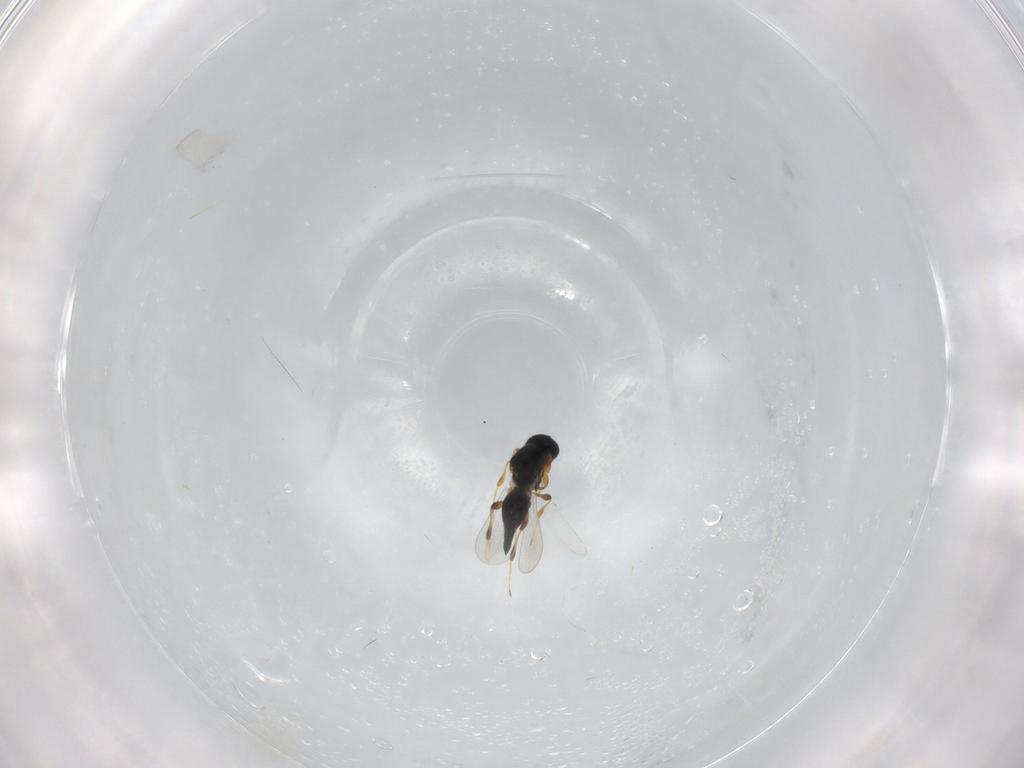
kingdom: Animalia
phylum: Arthropoda
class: Insecta
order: Hymenoptera
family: Platygastridae
